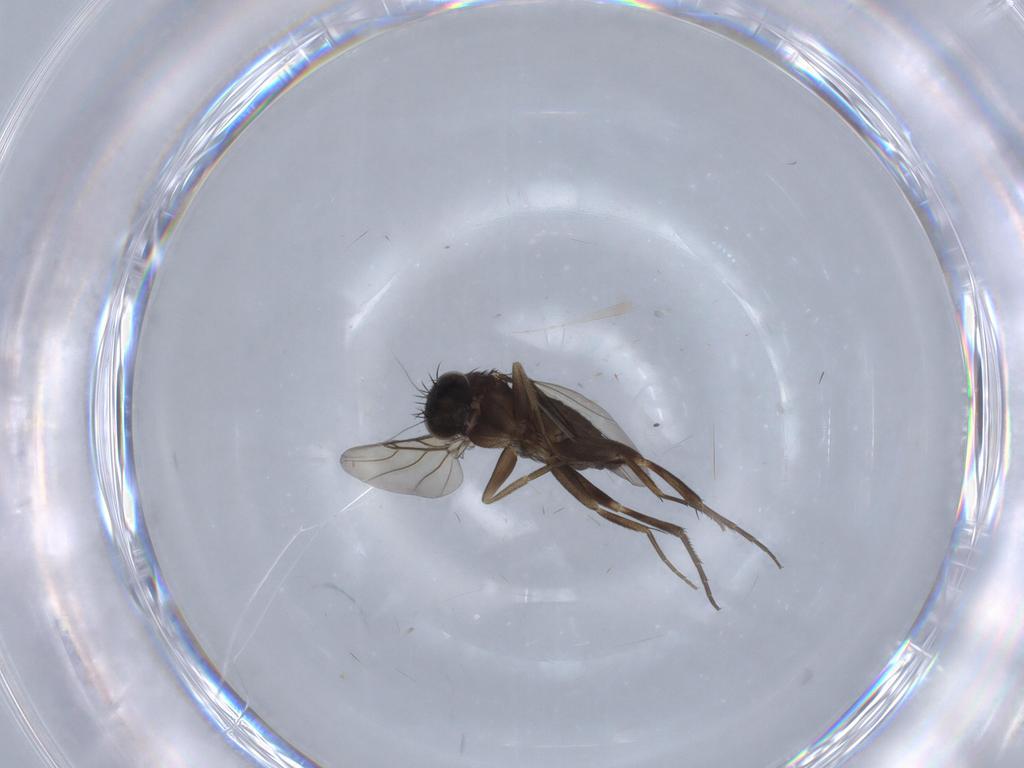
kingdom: Animalia
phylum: Arthropoda
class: Insecta
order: Diptera
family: Phoridae
